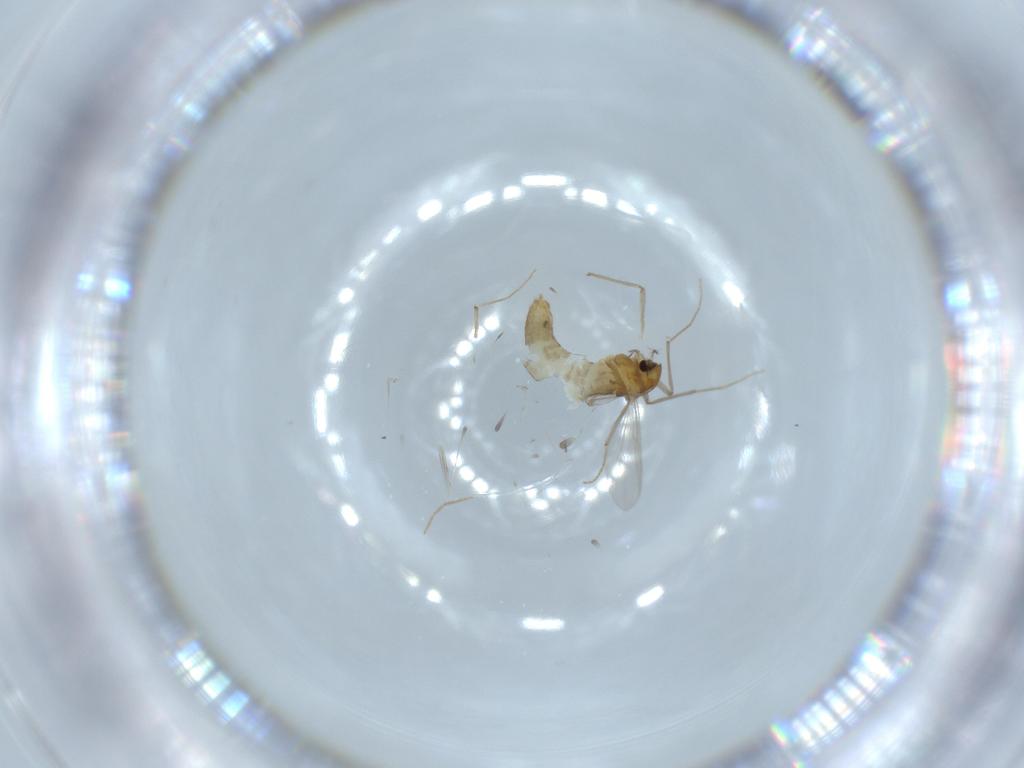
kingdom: Animalia
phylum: Arthropoda
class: Insecta
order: Diptera
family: Chironomidae
